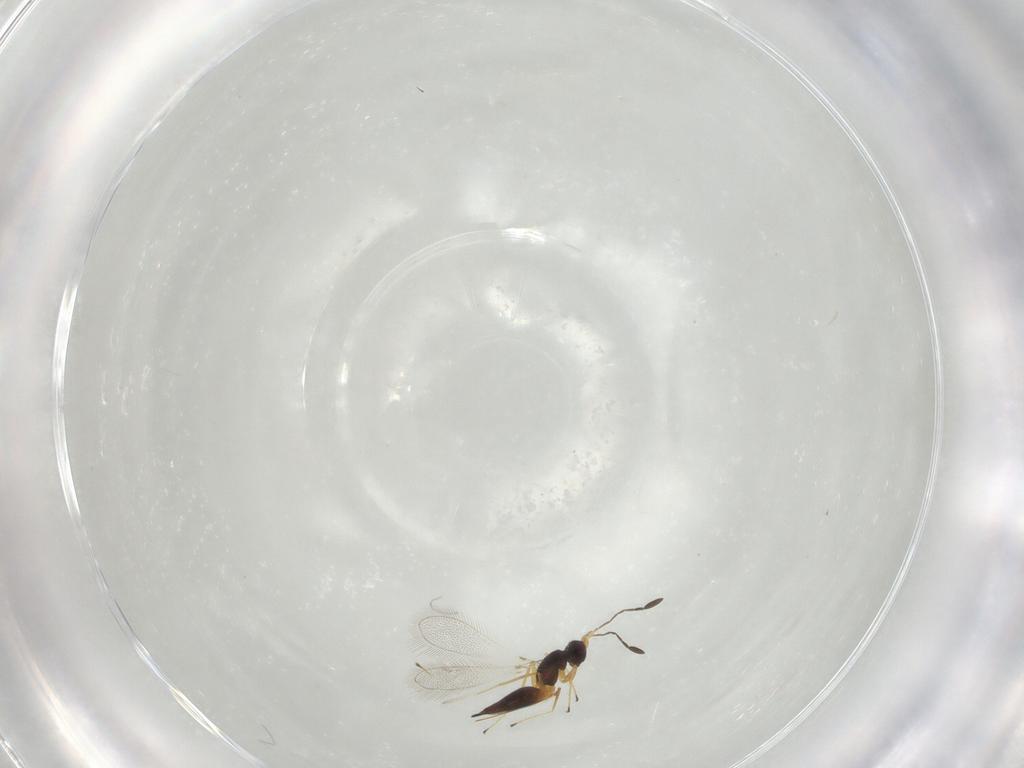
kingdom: Animalia
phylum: Arthropoda
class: Insecta
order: Hymenoptera
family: Mymaridae
